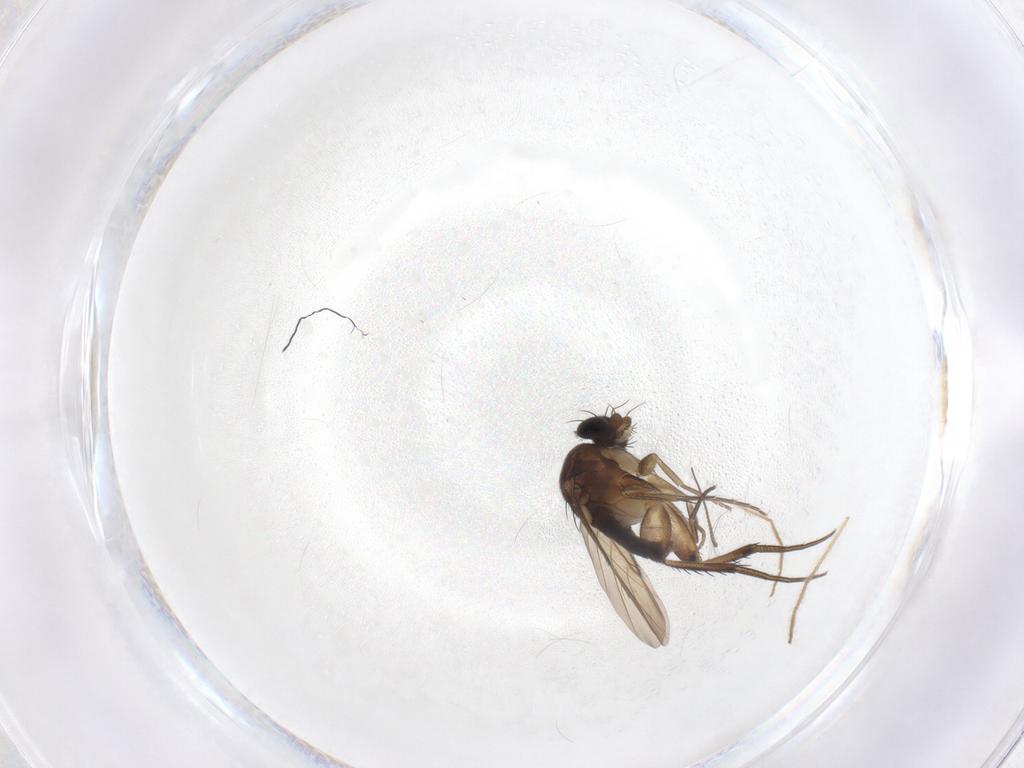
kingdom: Animalia
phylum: Arthropoda
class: Insecta
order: Diptera
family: Phoridae
